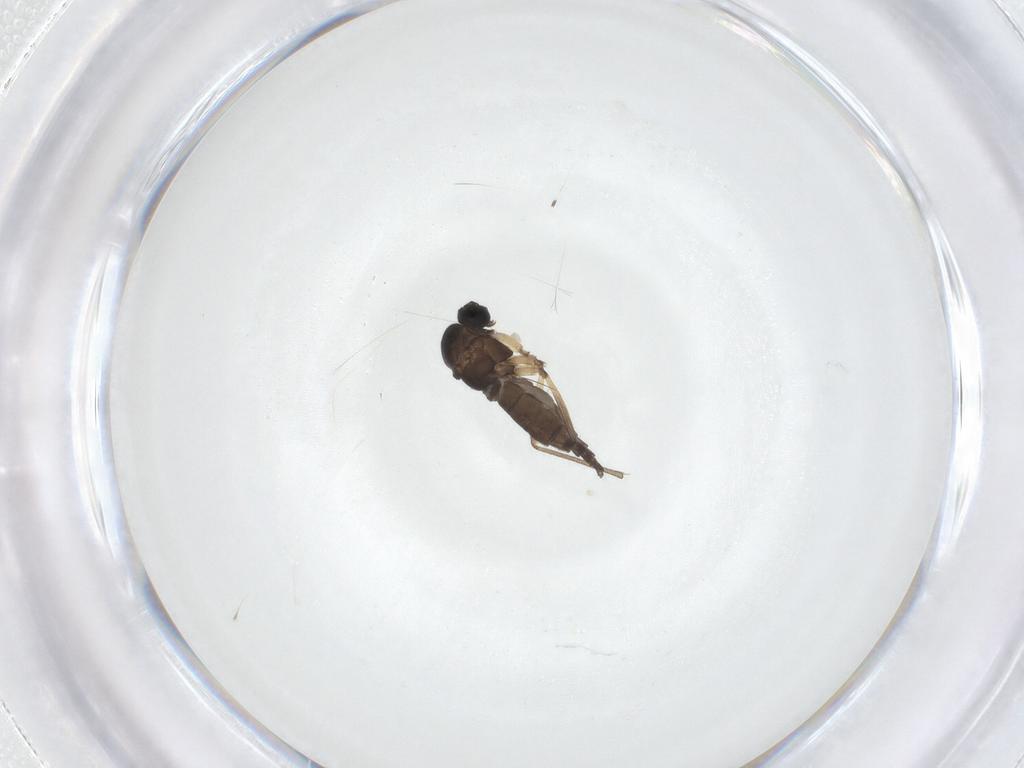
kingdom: Animalia
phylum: Arthropoda
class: Insecta
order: Diptera
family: Sciaridae
